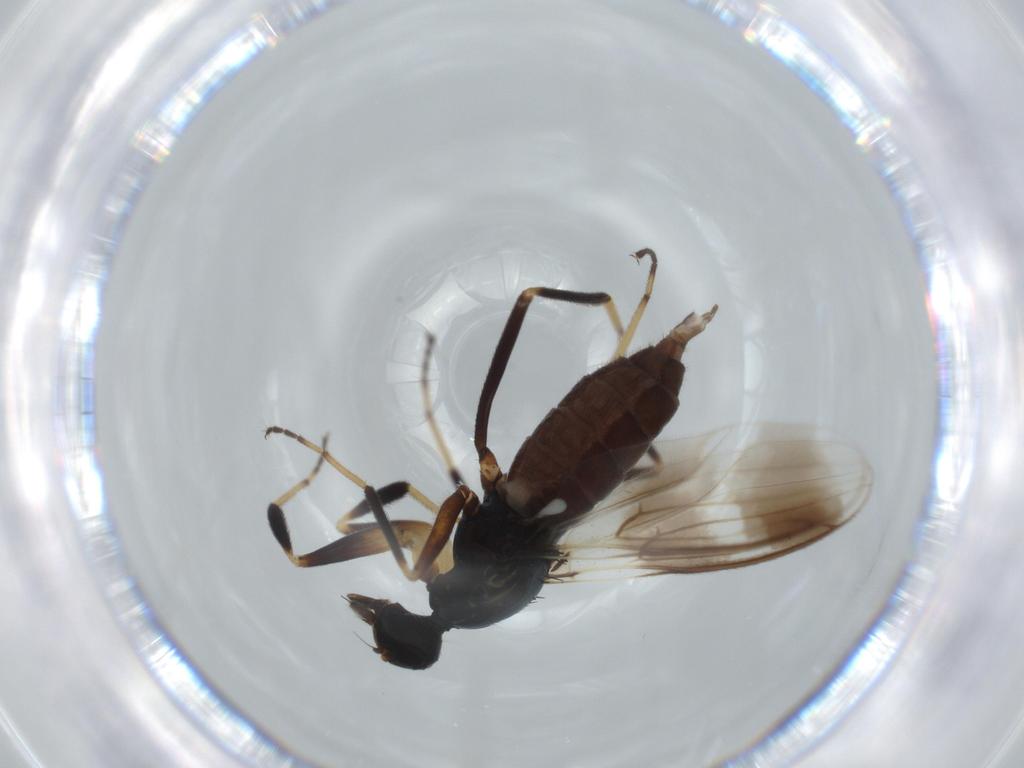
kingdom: Animalia
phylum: Arthropoda
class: Insecta
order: Diptera
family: Hybotidae
